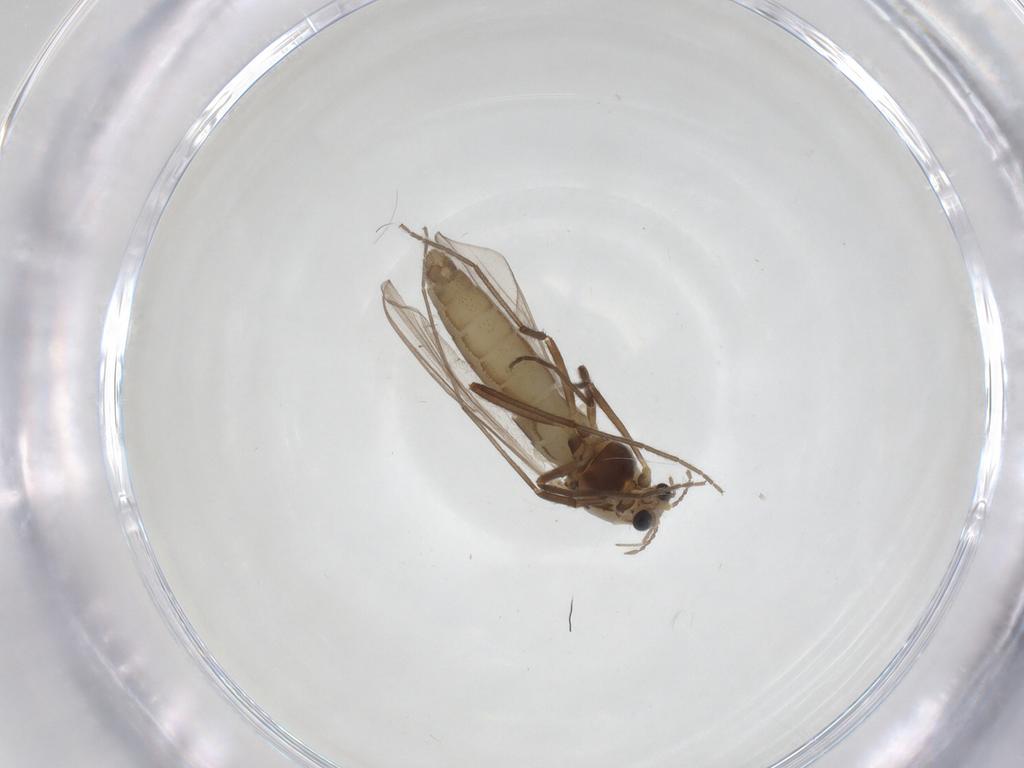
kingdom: Animalia
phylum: Arthropoda
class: Insecta
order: Diptera
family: Chironomidae
